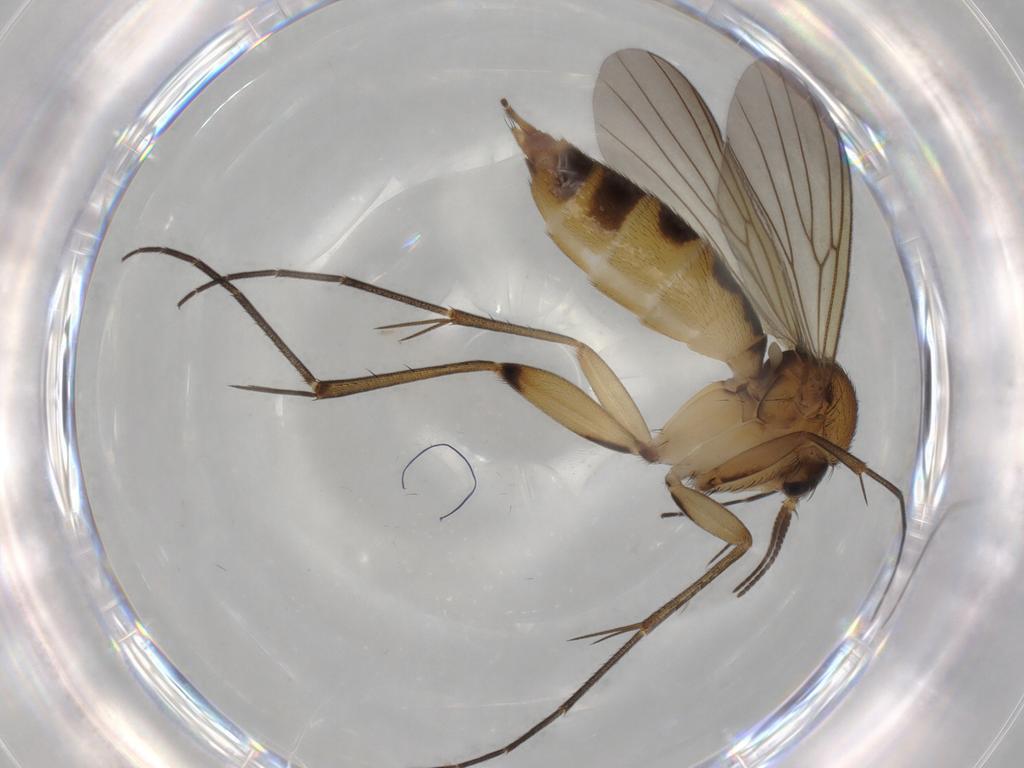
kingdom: Animalia
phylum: Arthropoda
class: Insecta
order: Diptera
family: Mycetophilidae
